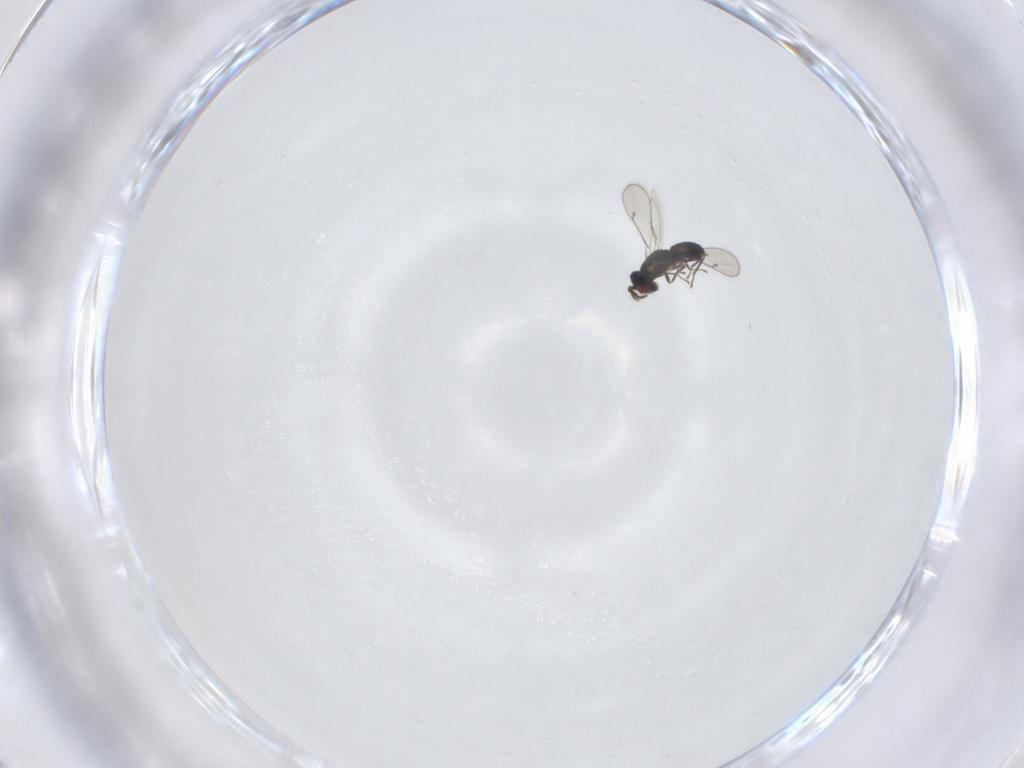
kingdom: Animalia
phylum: Arthropoda
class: Insecta
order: Hymenoptera
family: Eulophidae
